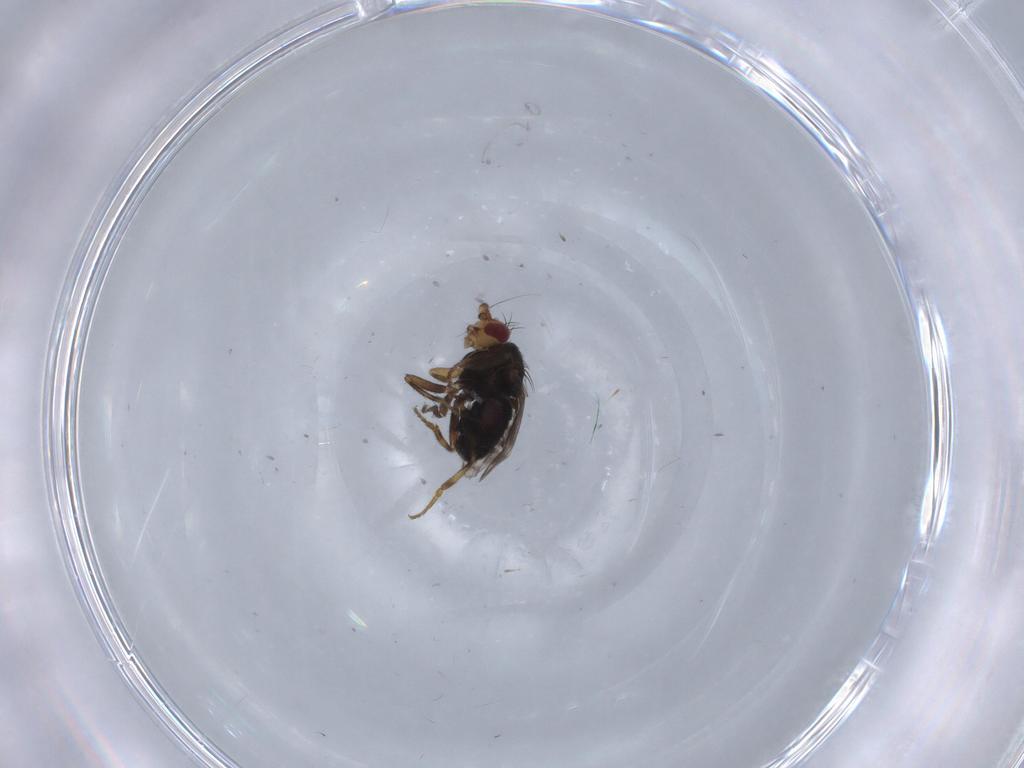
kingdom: Animalia
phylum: Arthropoda
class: Insecta
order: Diptera
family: Sphaeroceridae
